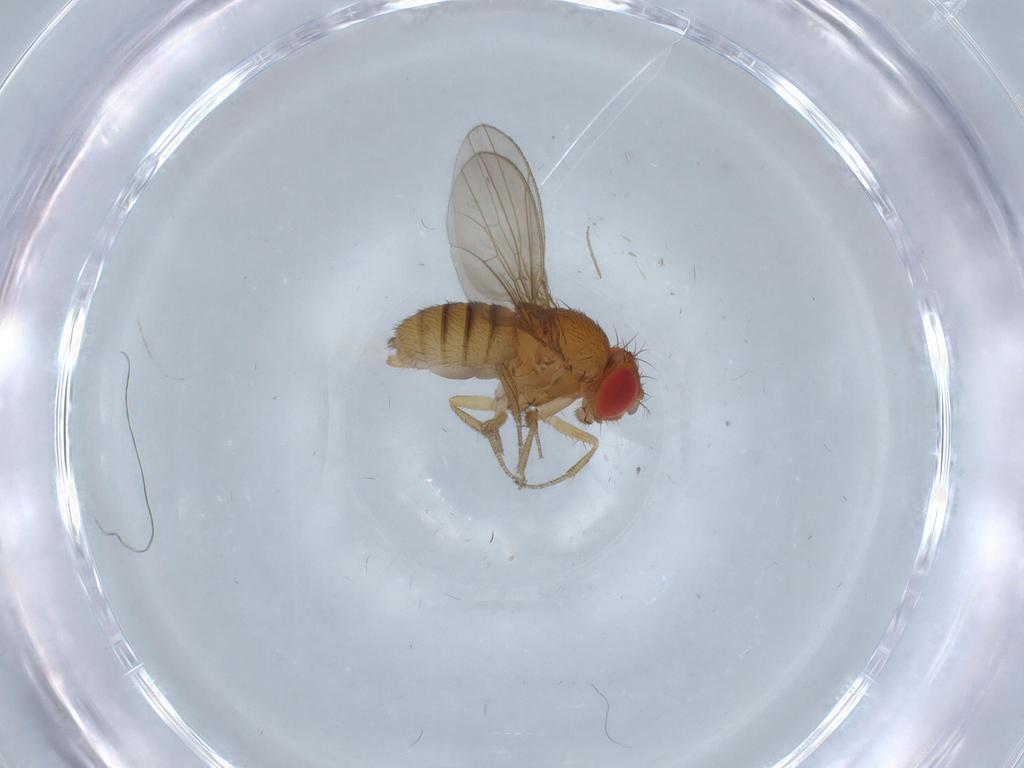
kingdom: Animalia
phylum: Arthropoda
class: Insecta
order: Diptera
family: Drosophilidae
